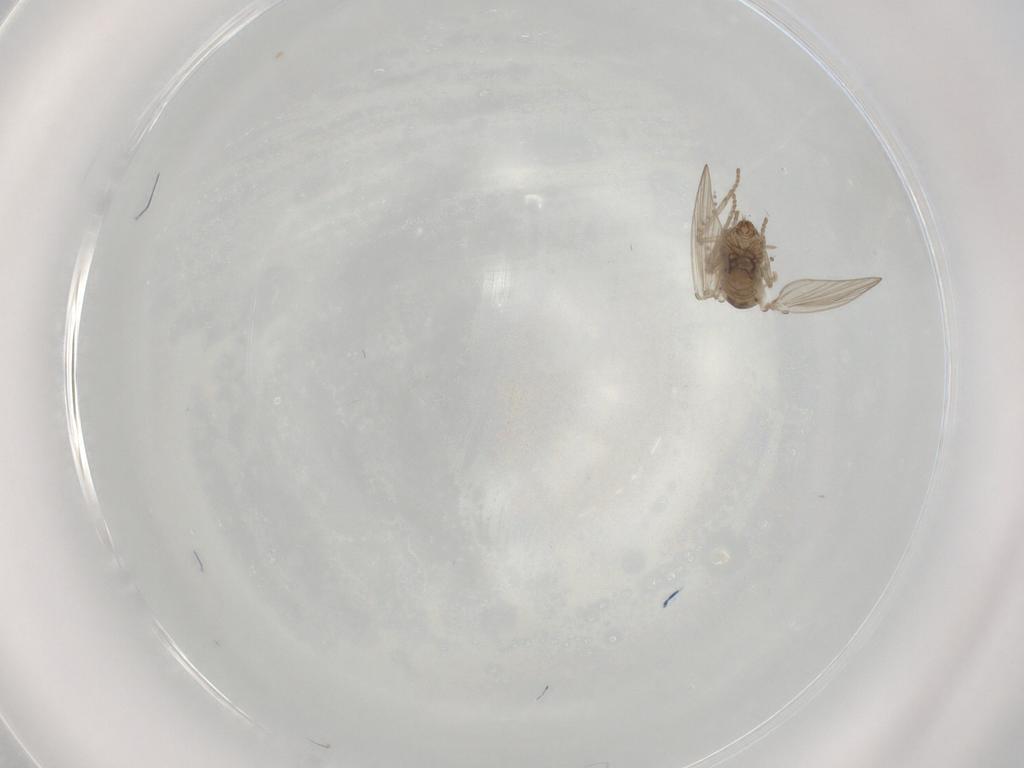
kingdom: Animalia
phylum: Arthropoda
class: Insecta
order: Diptera
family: Psychodidae
